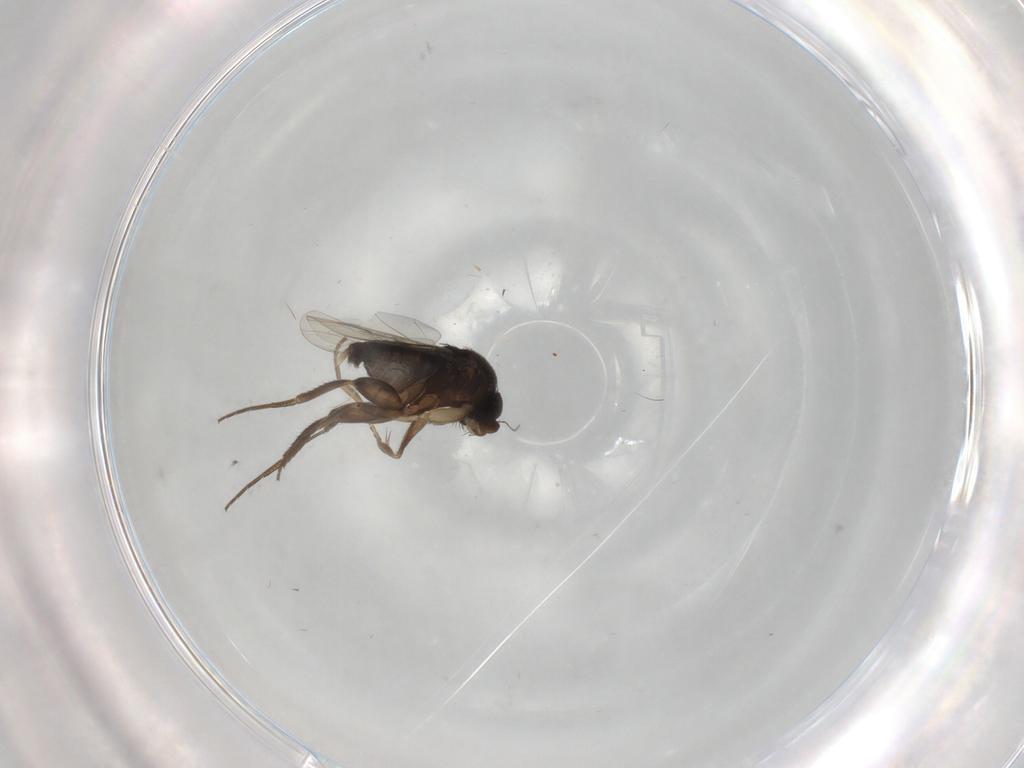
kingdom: Animalia
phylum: Arthropoda
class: Insecta
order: Diptera
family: Phoridae
